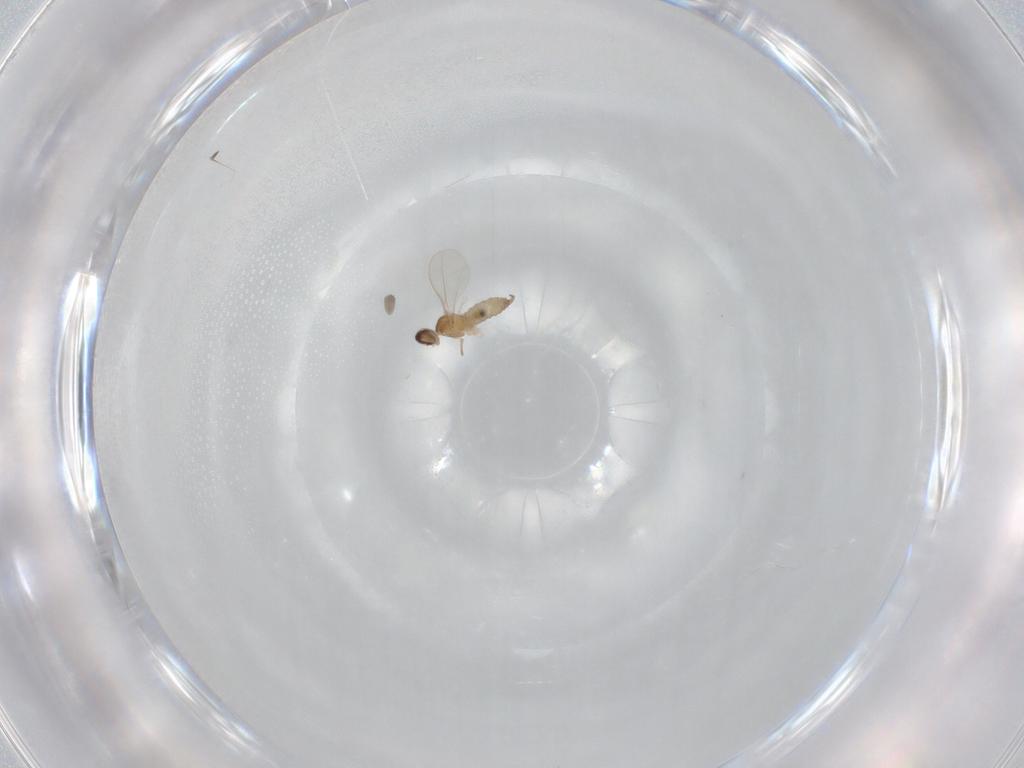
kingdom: Animalia
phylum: Arthropoda
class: Insecta
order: Diptera
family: Cecidomyiidae
